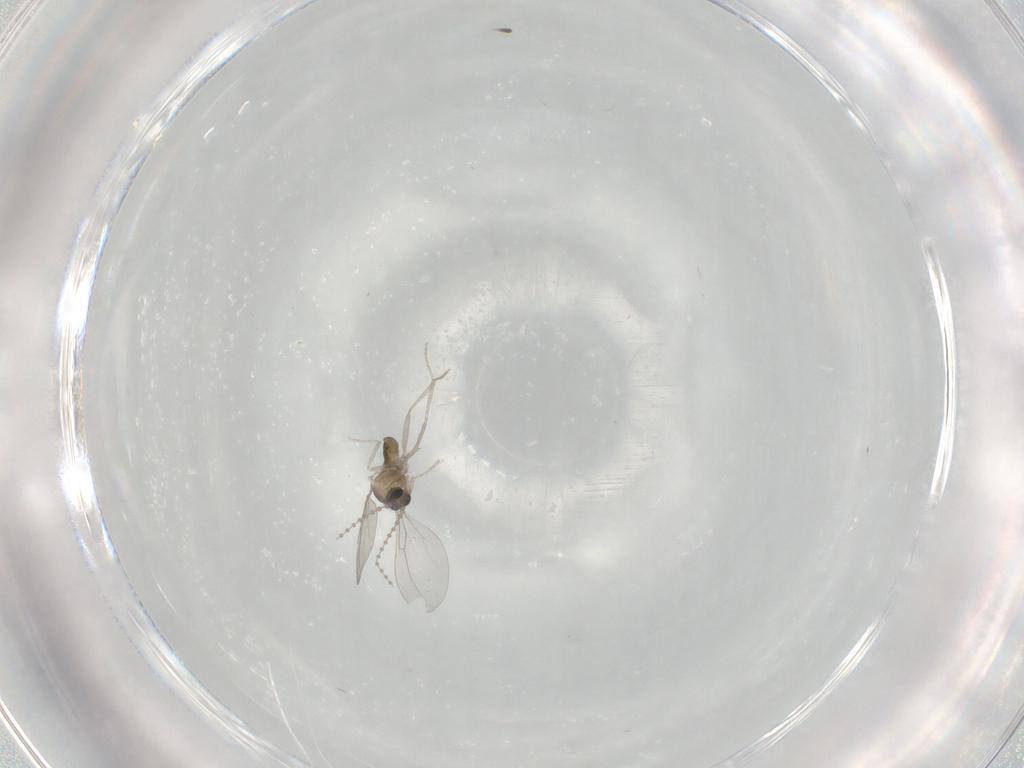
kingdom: Animalia
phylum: Arthropoda
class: Insecta
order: Diptera
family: Cecidomyiidae
